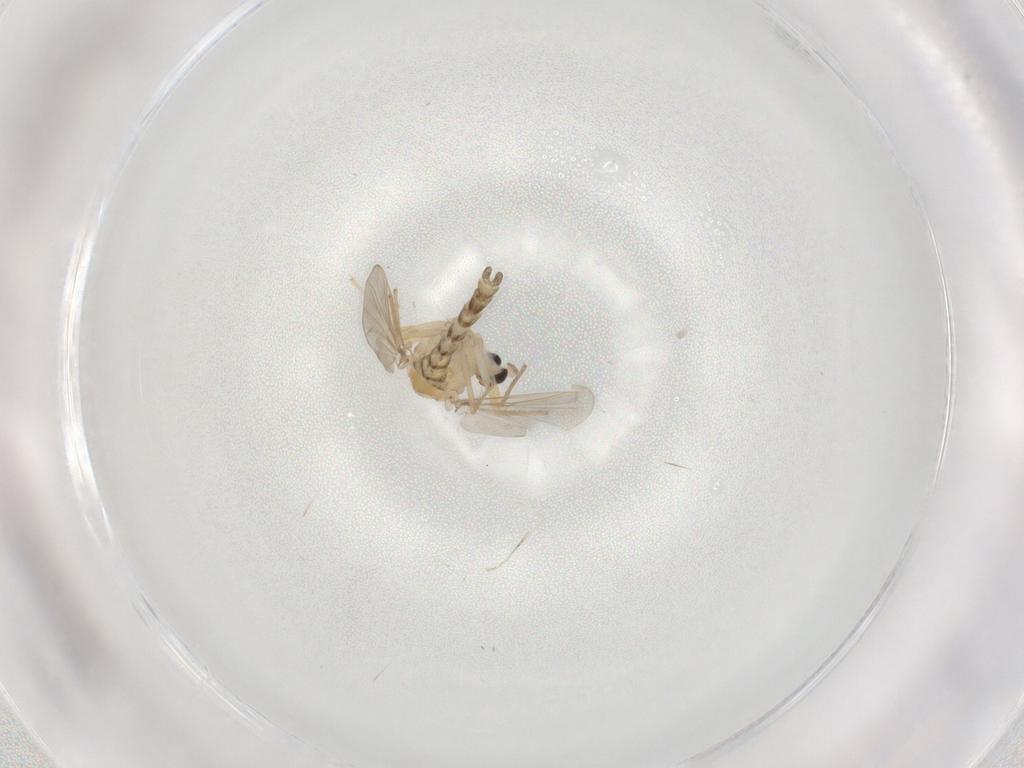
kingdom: Animalia
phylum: Arthropoda
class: Insecta
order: Diptera
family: Chironomidae
